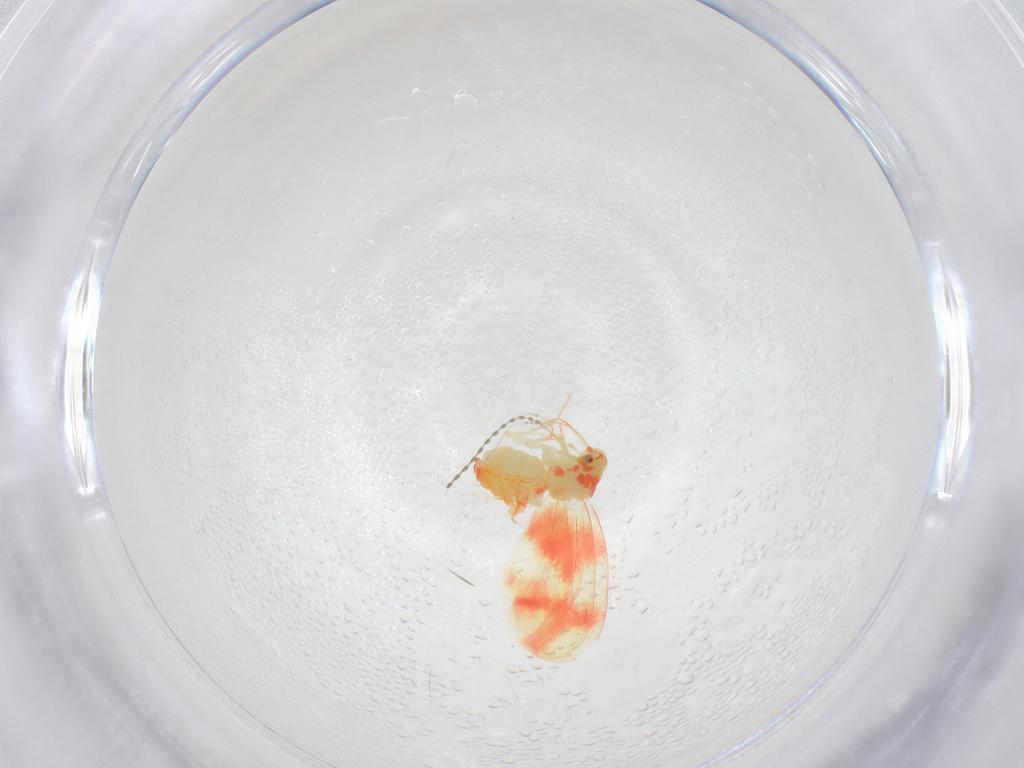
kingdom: Animalia
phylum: Arthropoda
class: Insecta
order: Hemiptera
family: Aleyrodidae
